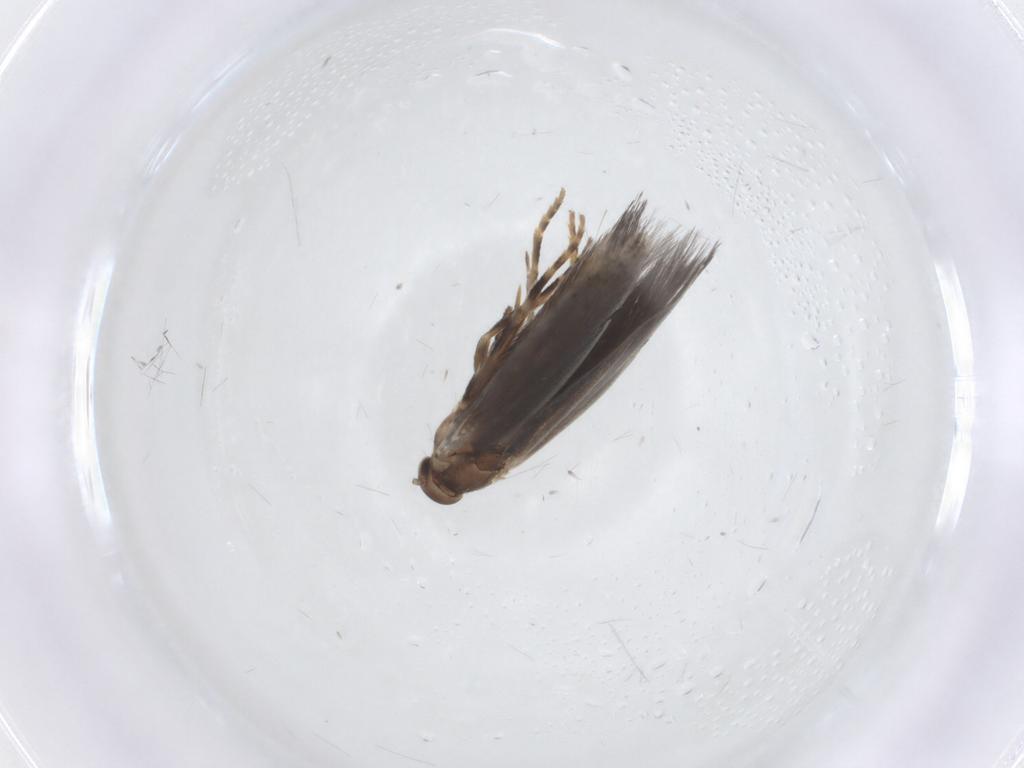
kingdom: Animalia
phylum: Arthropoda
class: Insecta
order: Lepidoptera
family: Elachistidae
